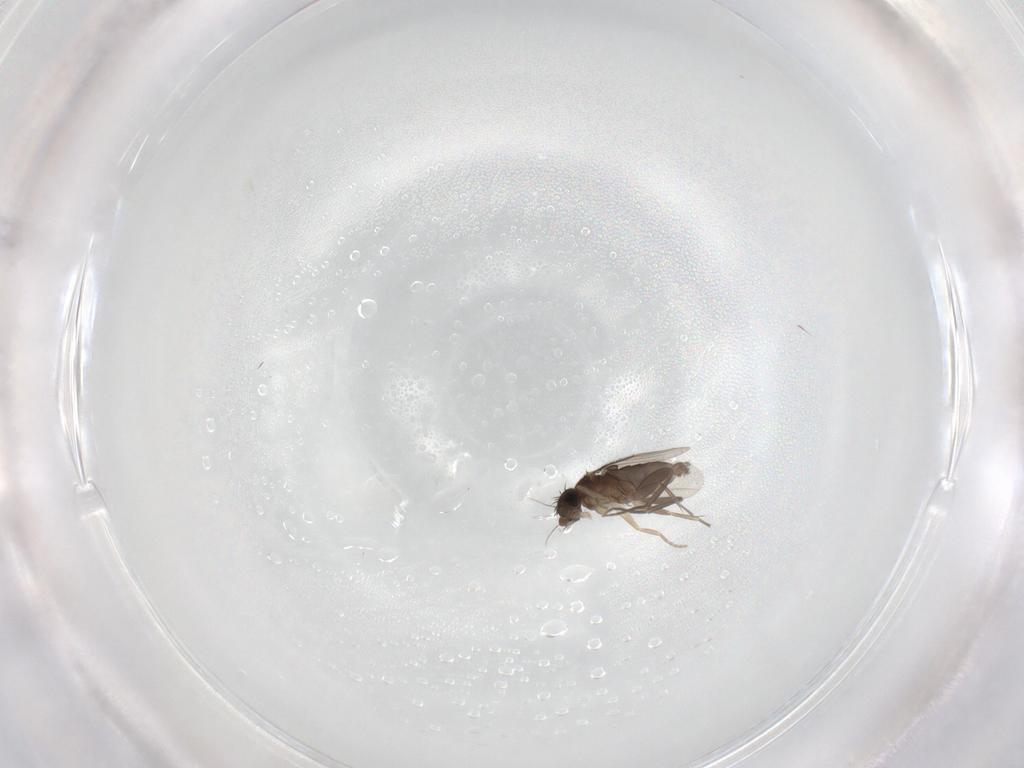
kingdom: Animalia
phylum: Arthropoda
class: Insecta
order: Diptera
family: Phoridae
